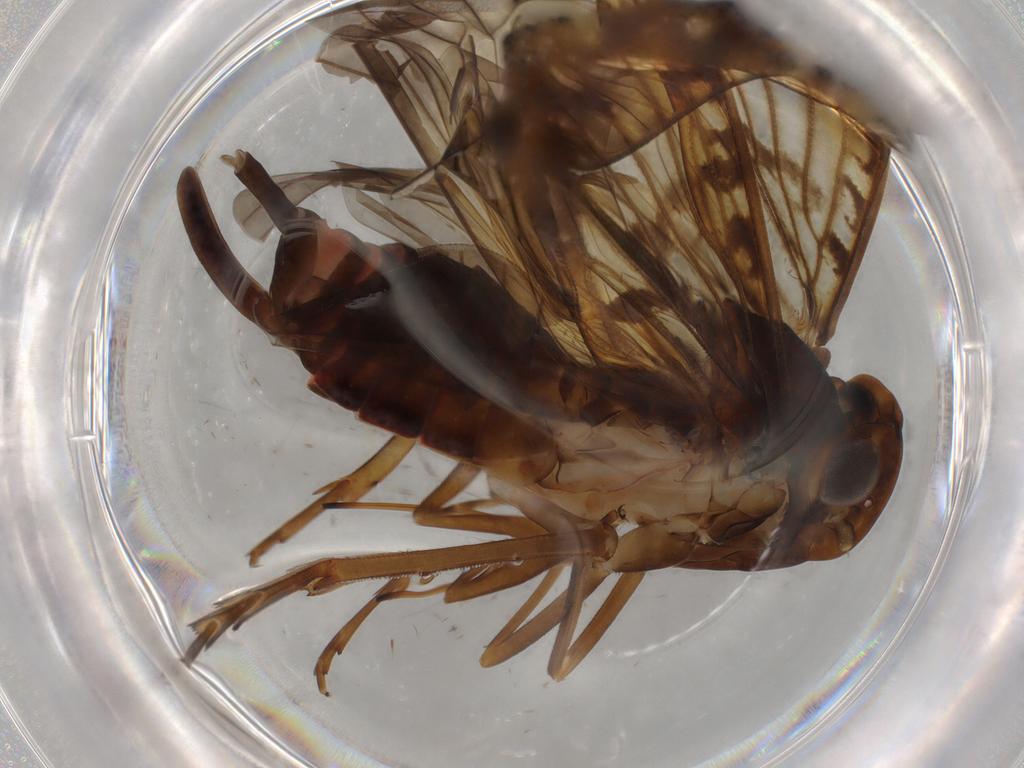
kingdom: Animalia
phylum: Arthropoda
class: Insecta
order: Hemiptera
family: Cixiidae
